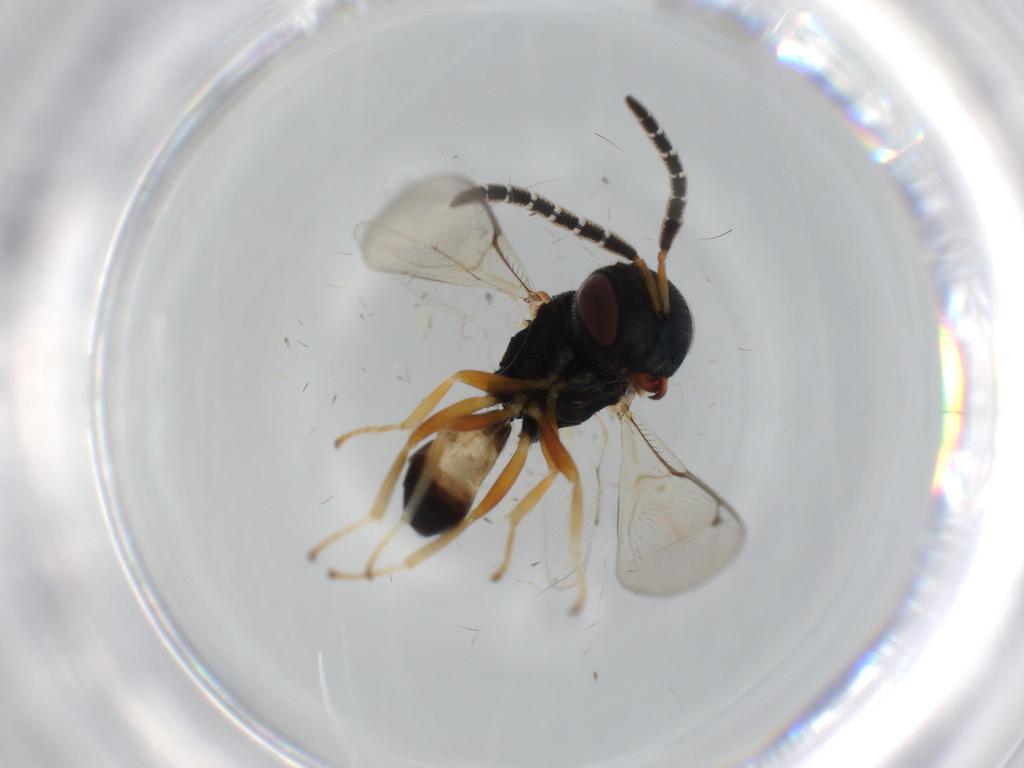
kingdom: Animalia
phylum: Arthropoda
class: Insecta
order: Hymenoptera
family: Agaonidae
